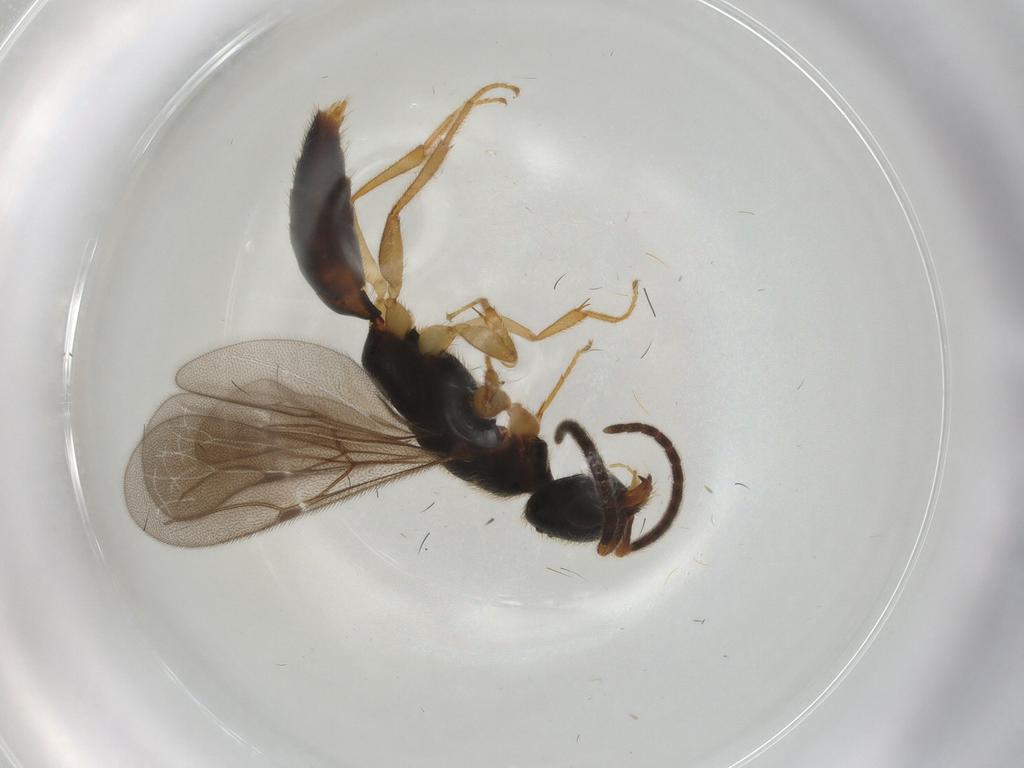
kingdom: Animalia
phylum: Arthropoda
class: Insecta
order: Hymenoptera
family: Bethylidae
